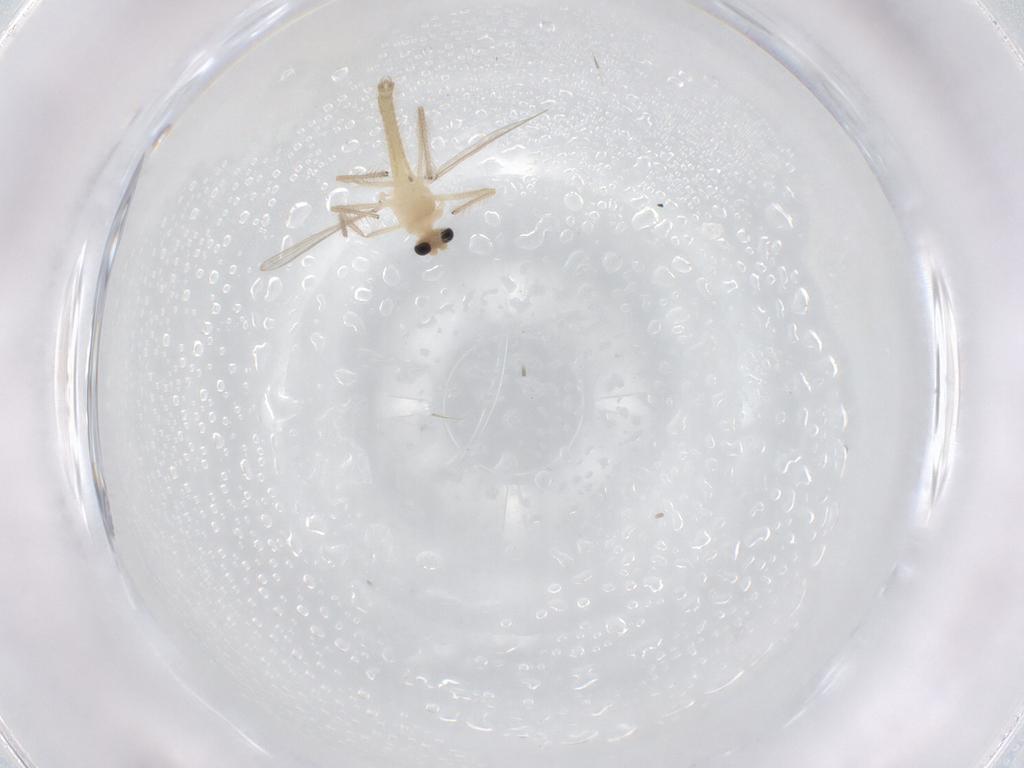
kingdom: Animalia
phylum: Arthropoda
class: Insecta
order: Diptera
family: Chironomidae
